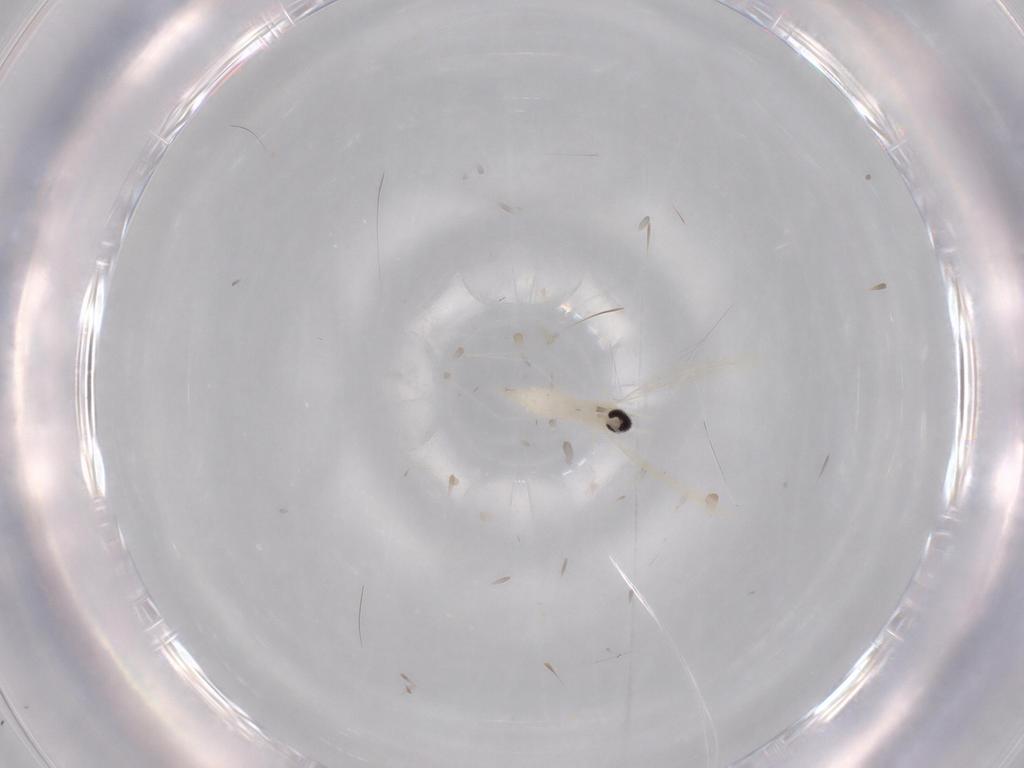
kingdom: Animalia
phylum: Arthropoda
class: Insecta
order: Diptera
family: Cecidomyiidae
